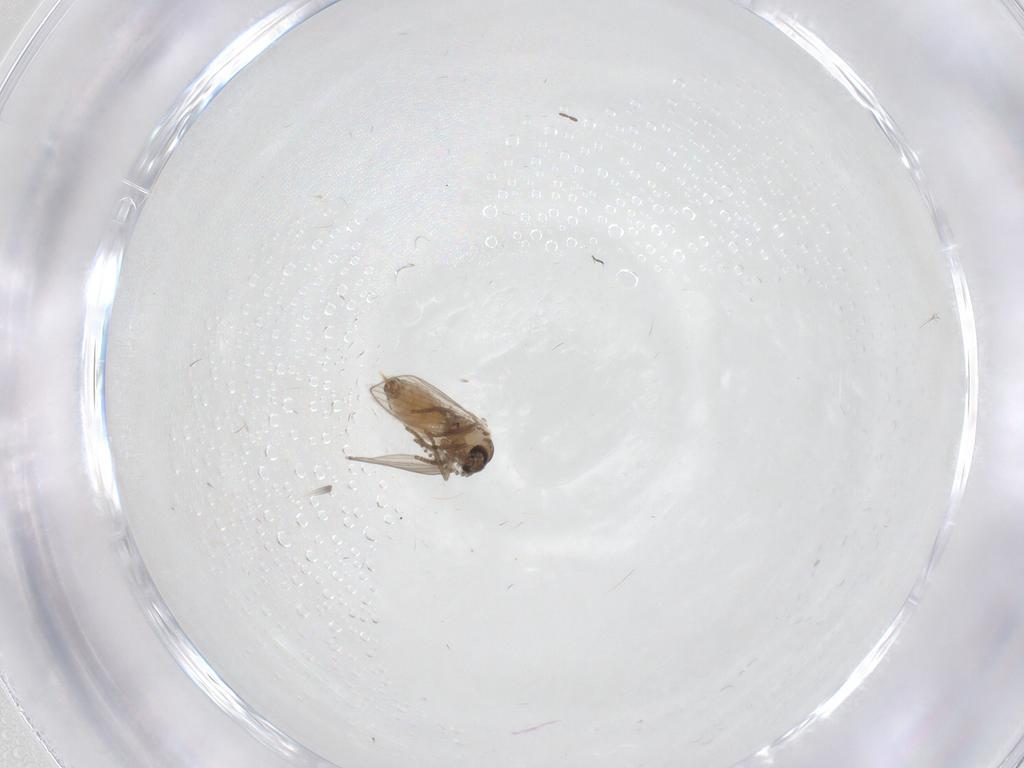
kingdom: Animalia
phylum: Arthropoda
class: Insecta
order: Diptera
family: Psychodidae
